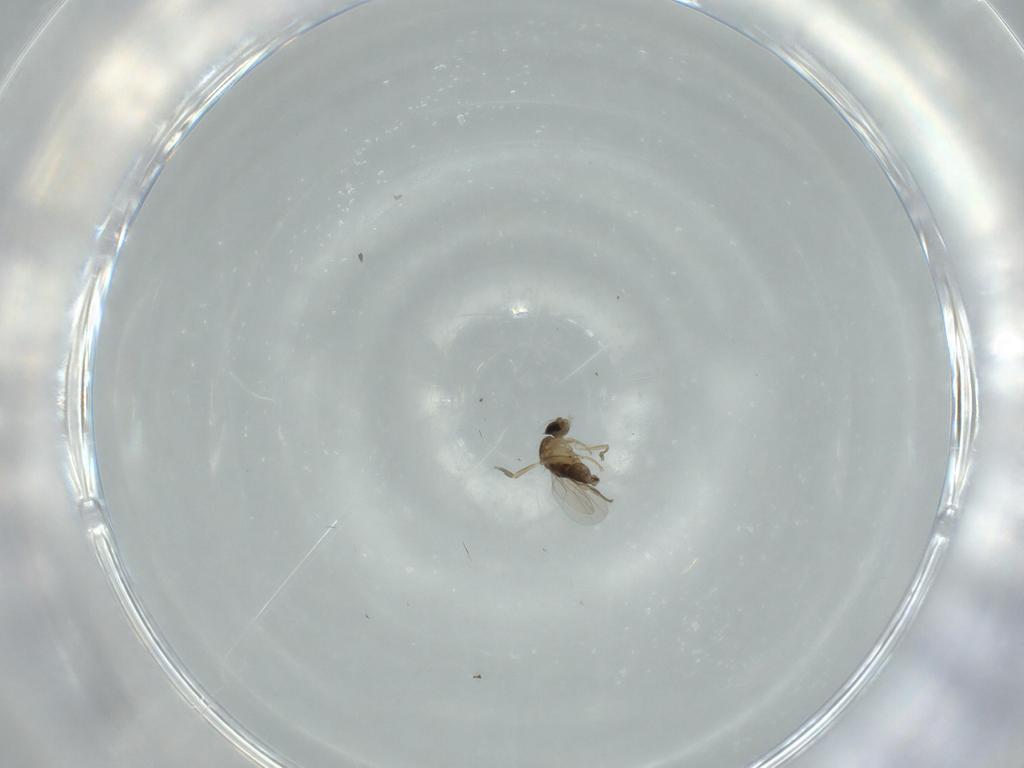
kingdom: Animalia
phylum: Arthropoda
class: Insecta
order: Diptera
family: Phoridae
